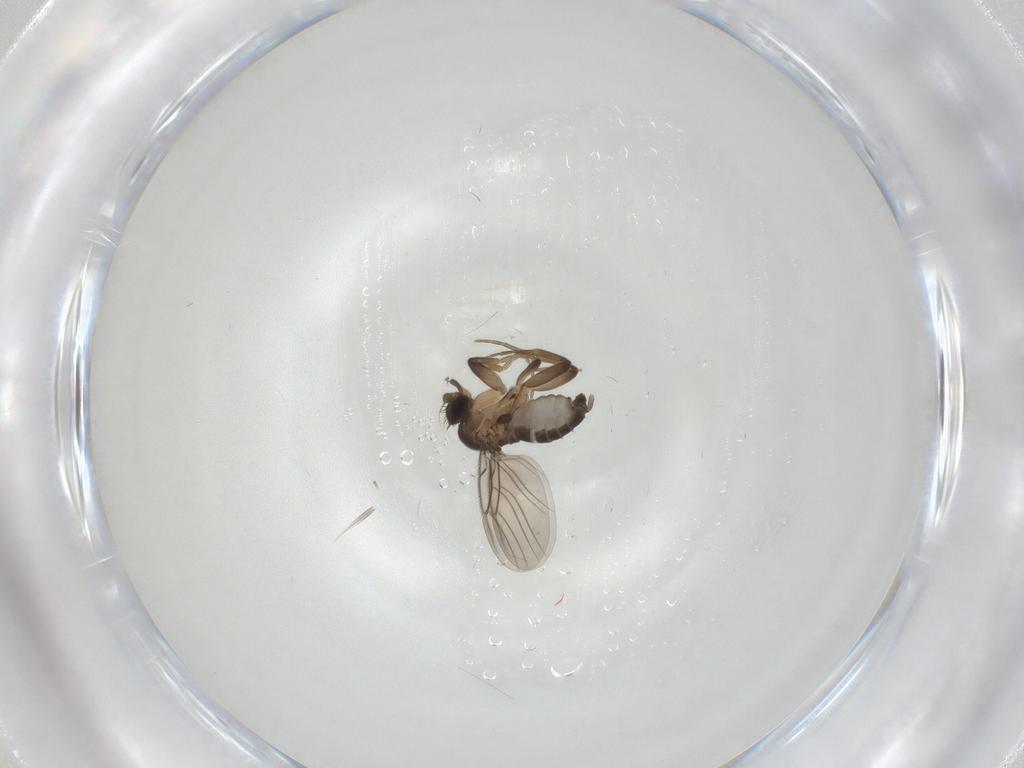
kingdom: Animalia
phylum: Arthropoda
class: Insecta
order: Diptera
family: Phoridae
